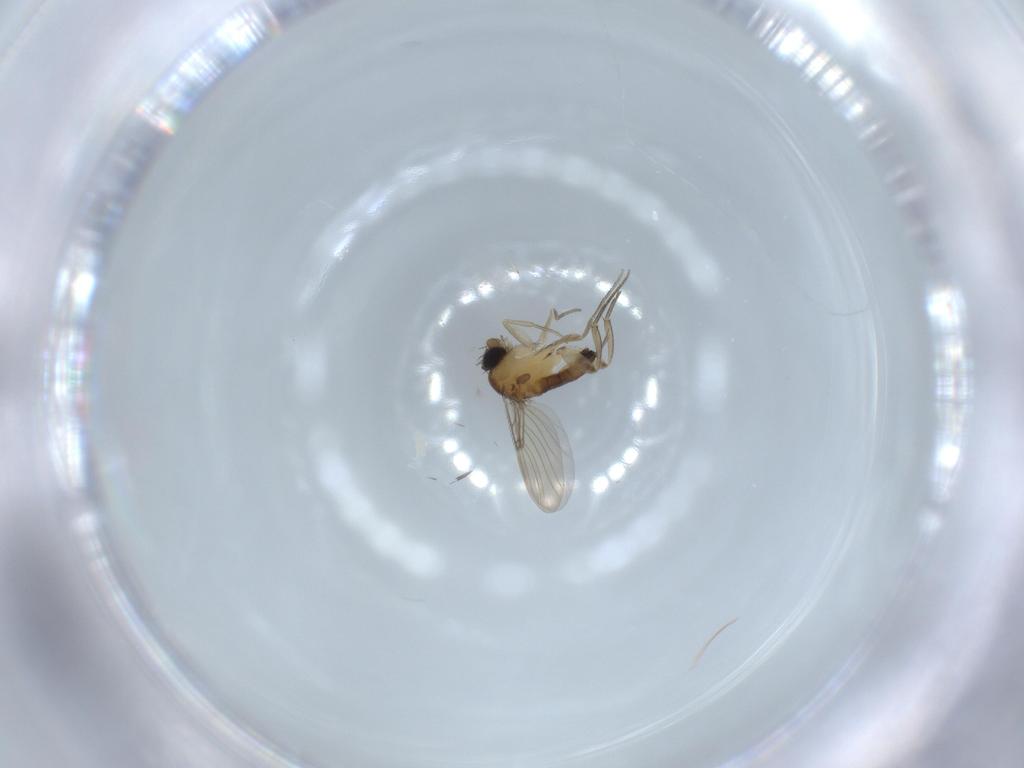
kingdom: Animalia
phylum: Arthropoda
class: Insecta
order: Diptera
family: Phoridae
